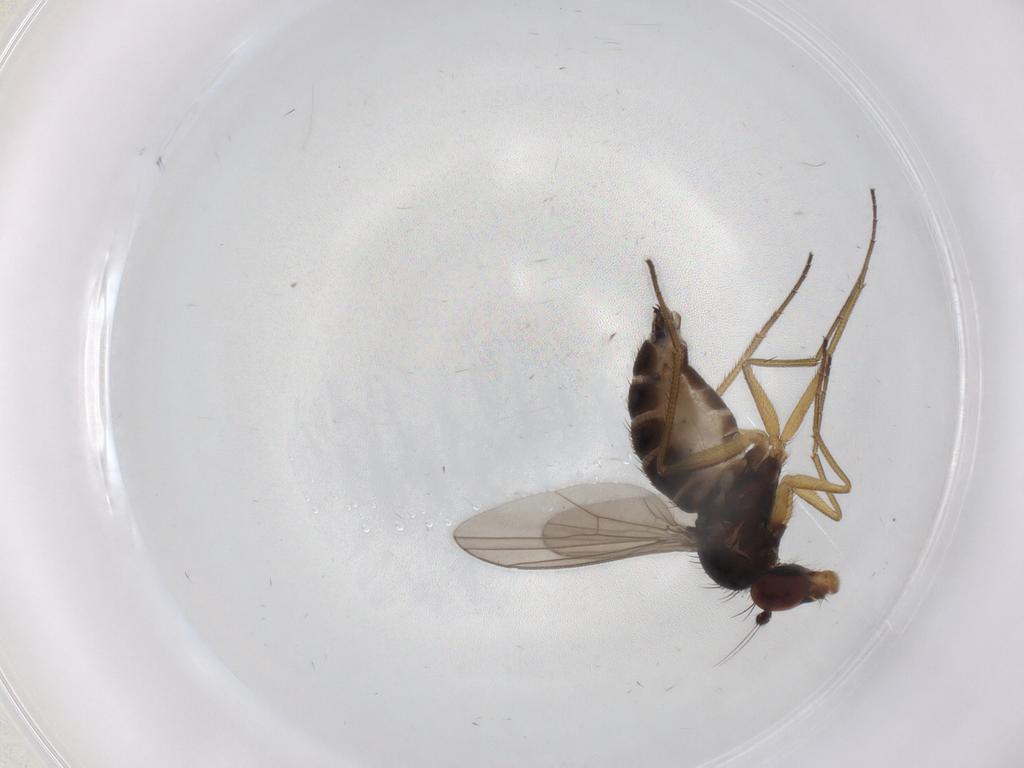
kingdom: Animalia
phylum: Arthropoda
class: Insecta
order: Diptera
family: Dolichopodidae
